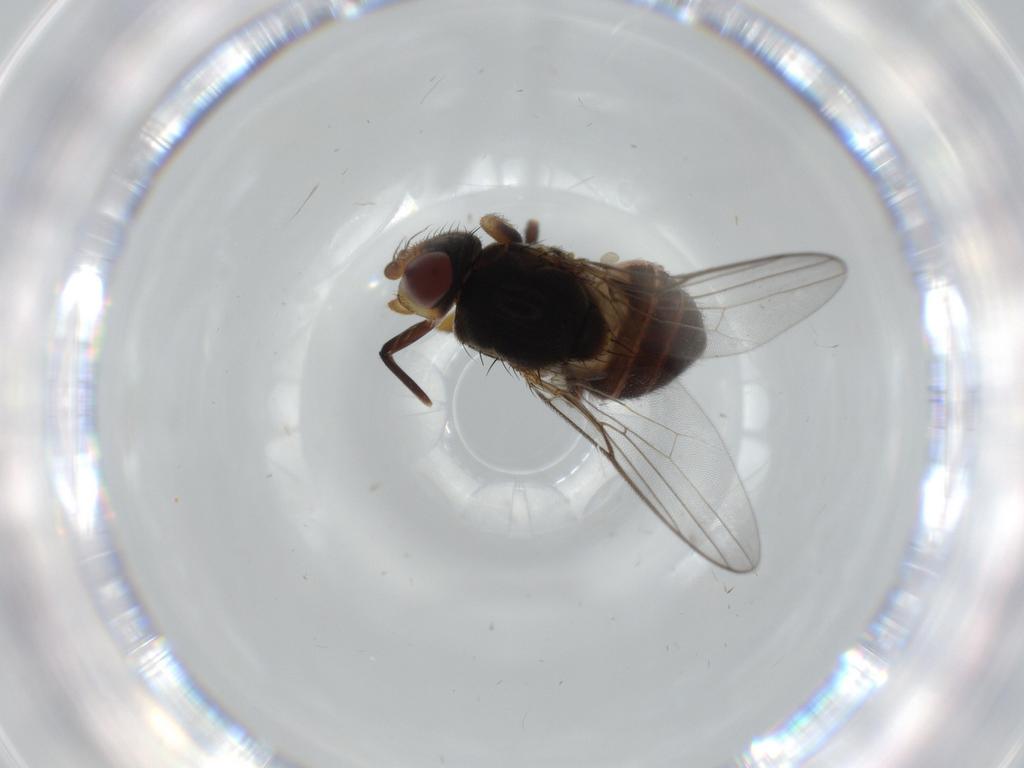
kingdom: Animalia
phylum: Arthropoda
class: Insecta
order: Diptera
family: Chloropidae
